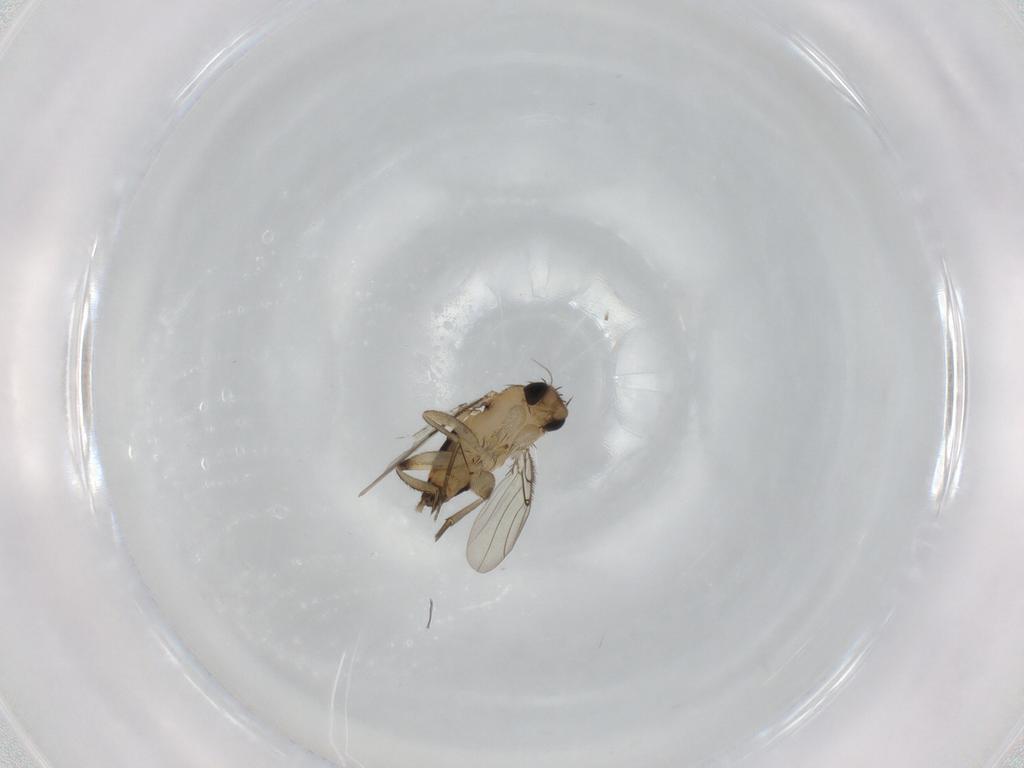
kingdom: Animalia
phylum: Arthropoda
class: Insecta
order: Diptera
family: Phoridae
